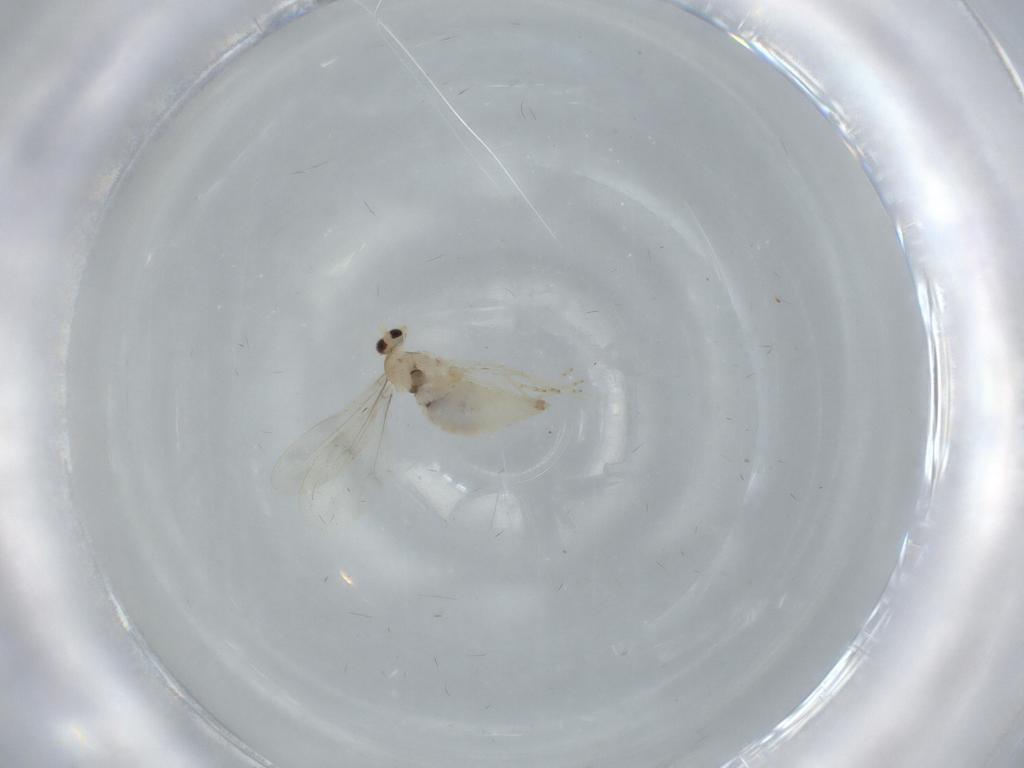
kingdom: Animalia
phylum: Arthropoda
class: Insecta
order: Diptera
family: Cecidomyiidae
